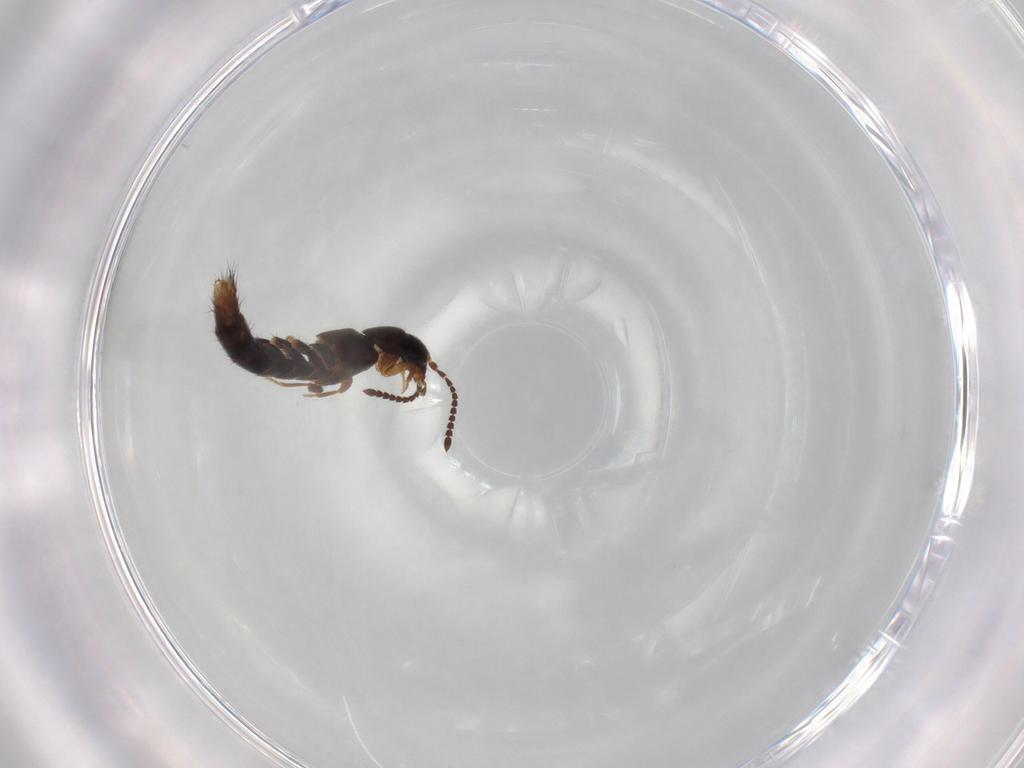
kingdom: Animalia
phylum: Arthropoda
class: Insecta
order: Coleoptera
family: Staphylinidae
